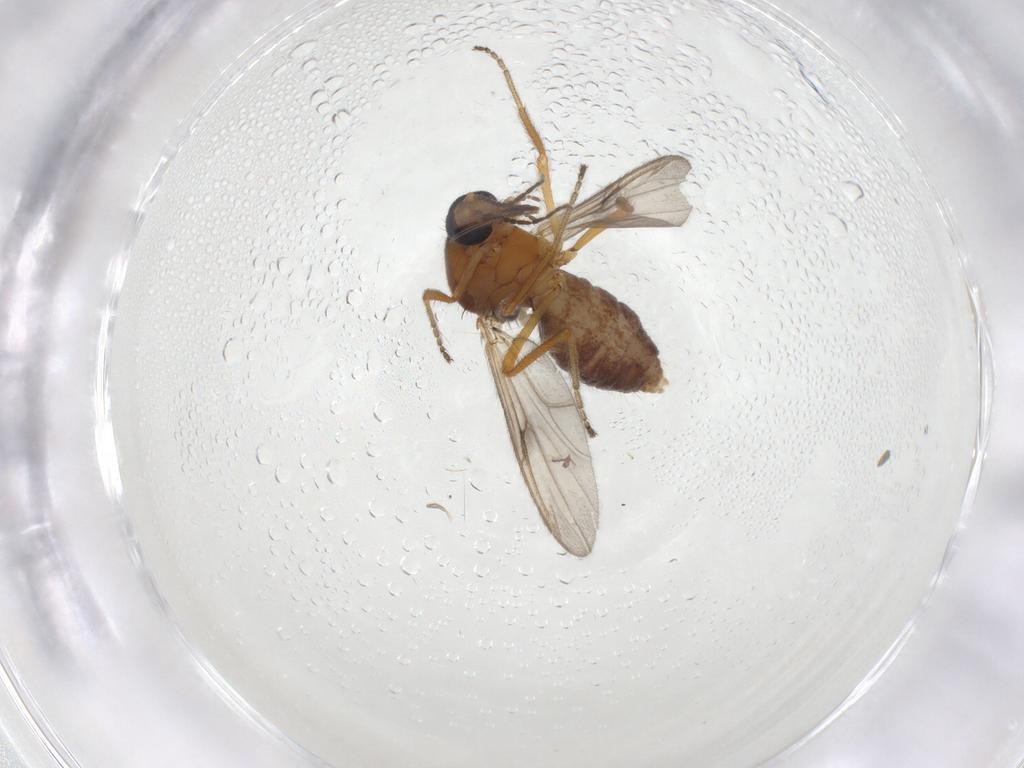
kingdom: Animalia
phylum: Arthropoda
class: Insecta
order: Diptera
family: Ceratopogonidae
